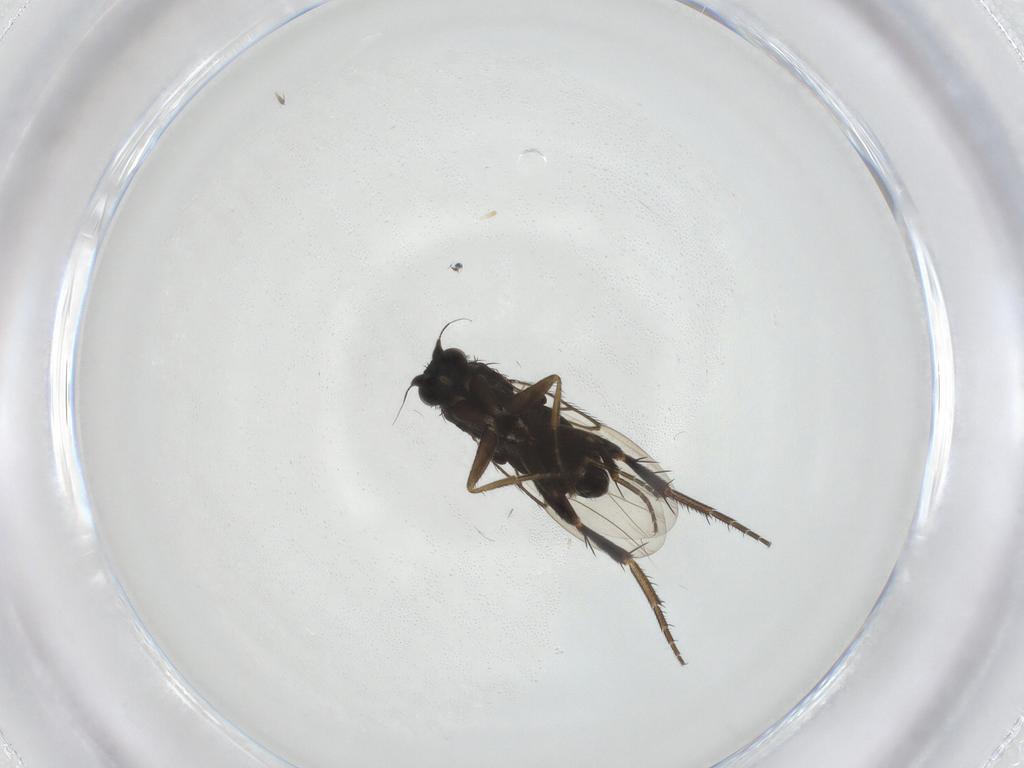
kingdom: Animalia
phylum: Arthropoda
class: Insecta
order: Diptera
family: Phoridae
